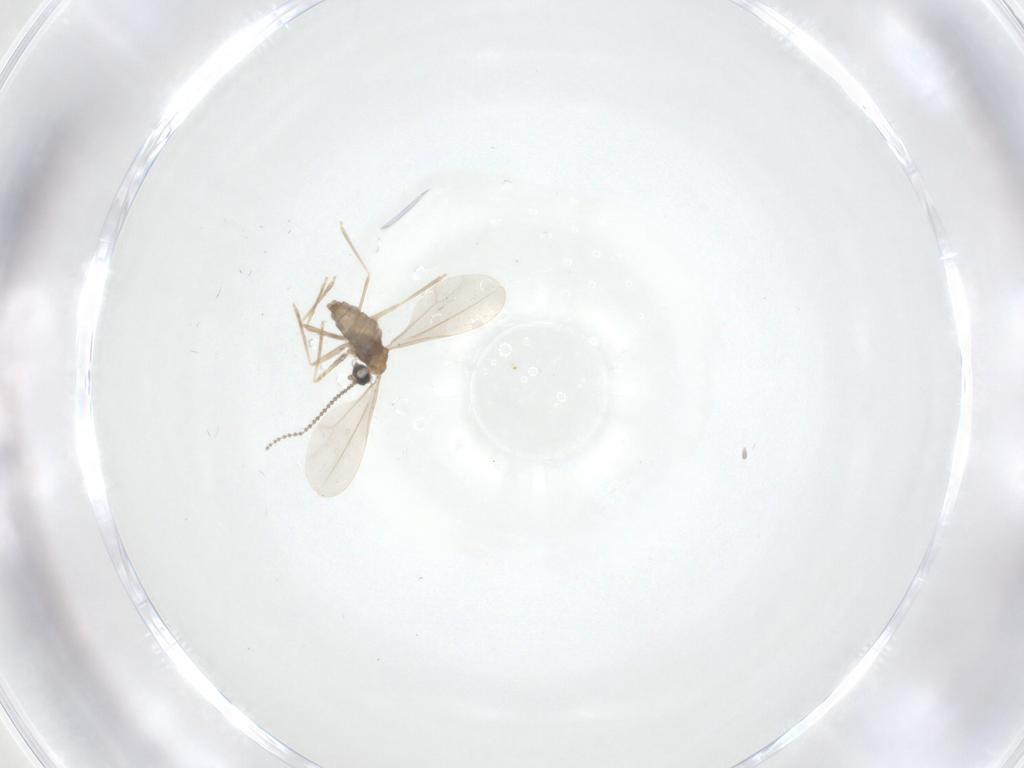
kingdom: Animalia
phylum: Arthropoda
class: Insecta
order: Diptera
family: Cecidomyiidae
